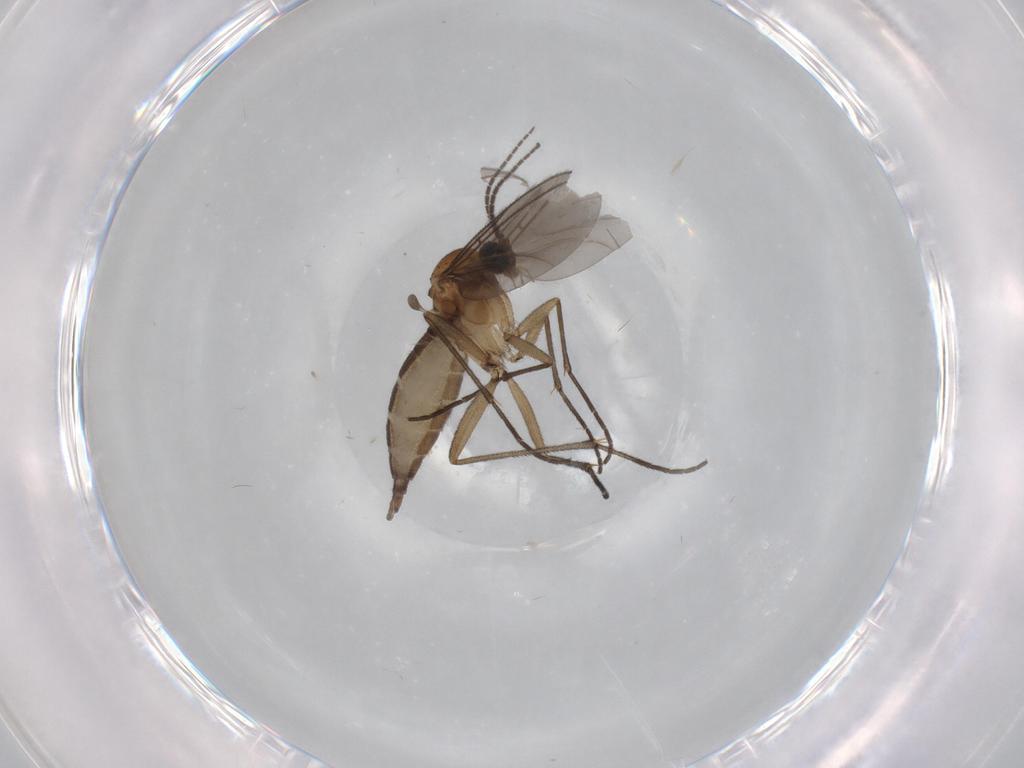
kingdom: Animalia
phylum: Arthropoda
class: Insecta
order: Diptera
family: Sciaridae
